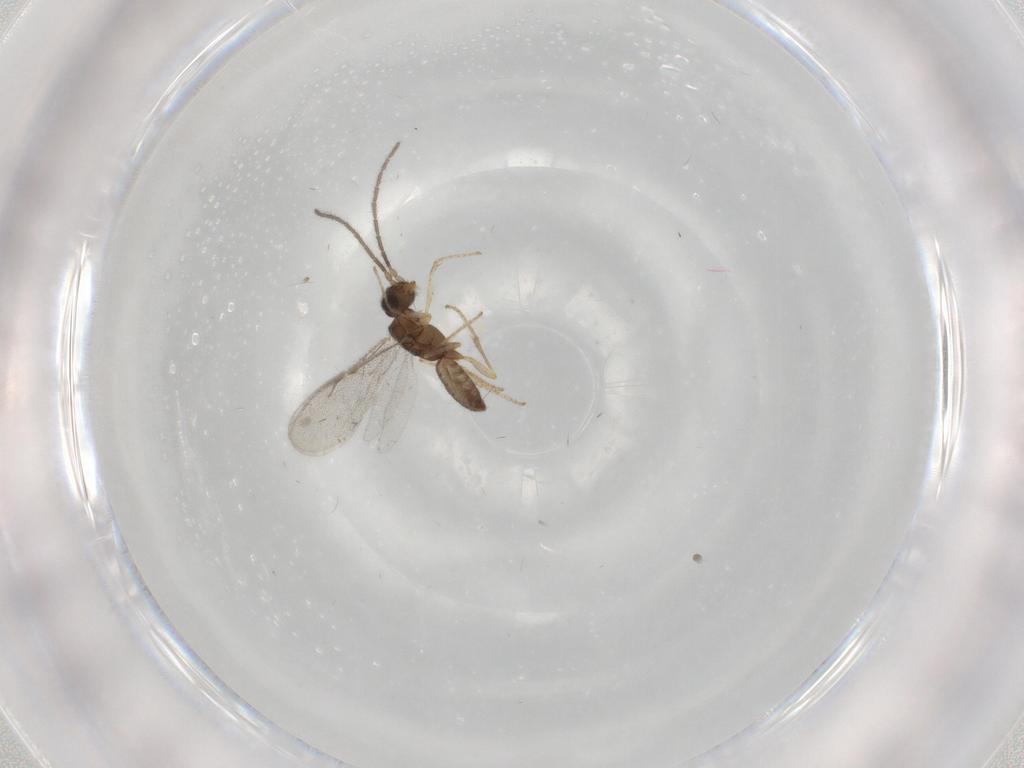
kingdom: Animalia
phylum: Arthropoda
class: Insecta
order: Hymenoptera
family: Dryinidae
